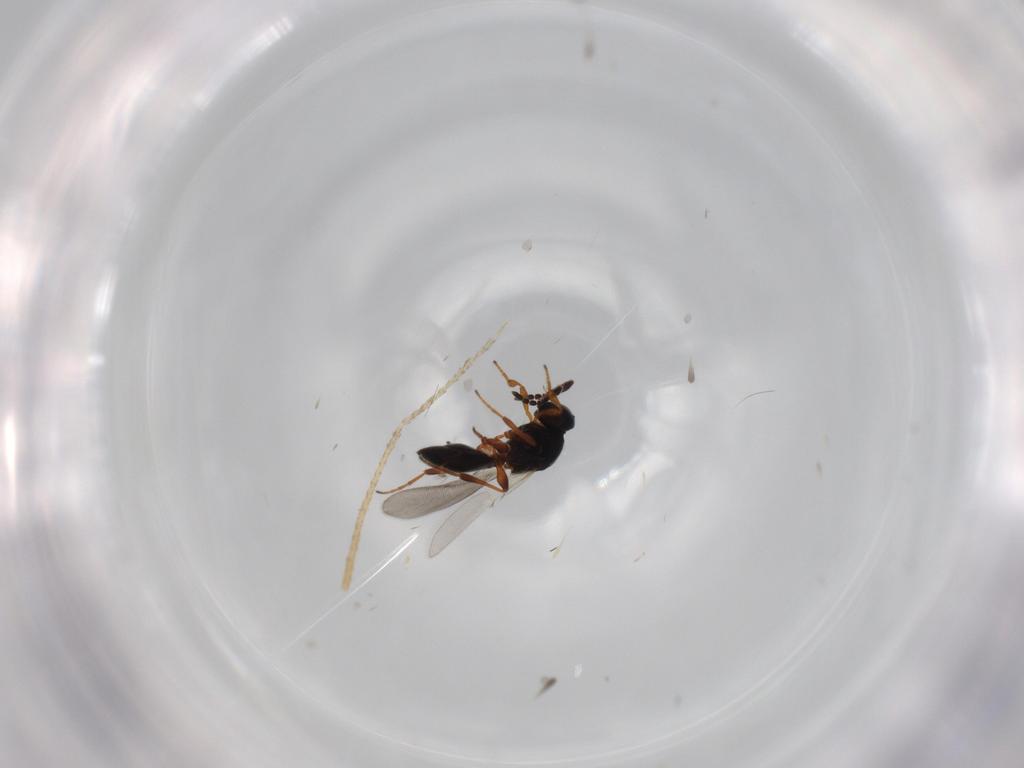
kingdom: Animalia
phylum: Arthropoda
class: Insecta
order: Hymenoptera
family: Platygastridae
